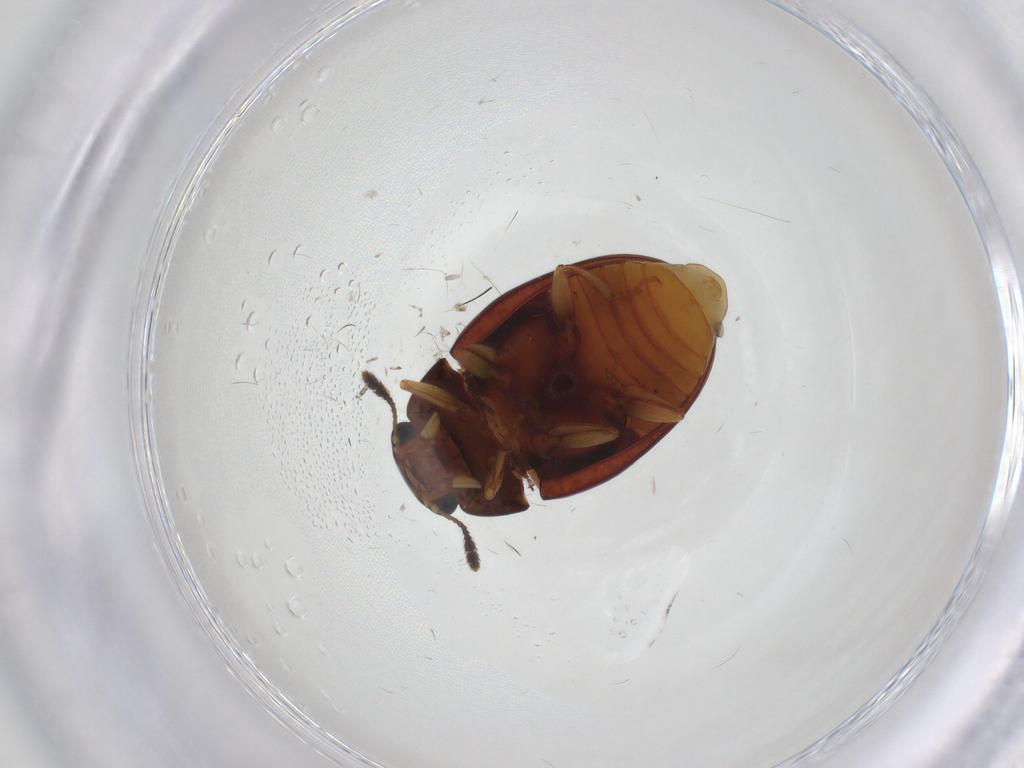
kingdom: Animalia
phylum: Arthropoda
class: Insecta
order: Coleoptera
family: Erotylidae
